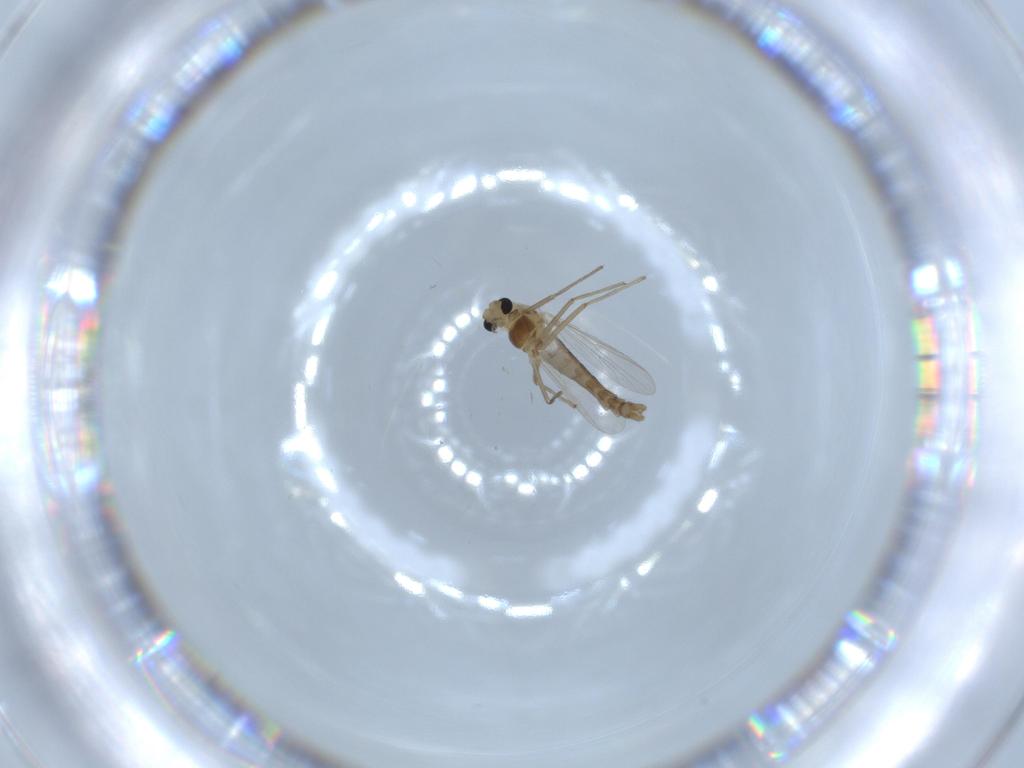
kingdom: Animalia
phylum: Arthropoda
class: Insecta
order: Diptera
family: Chironomidae
